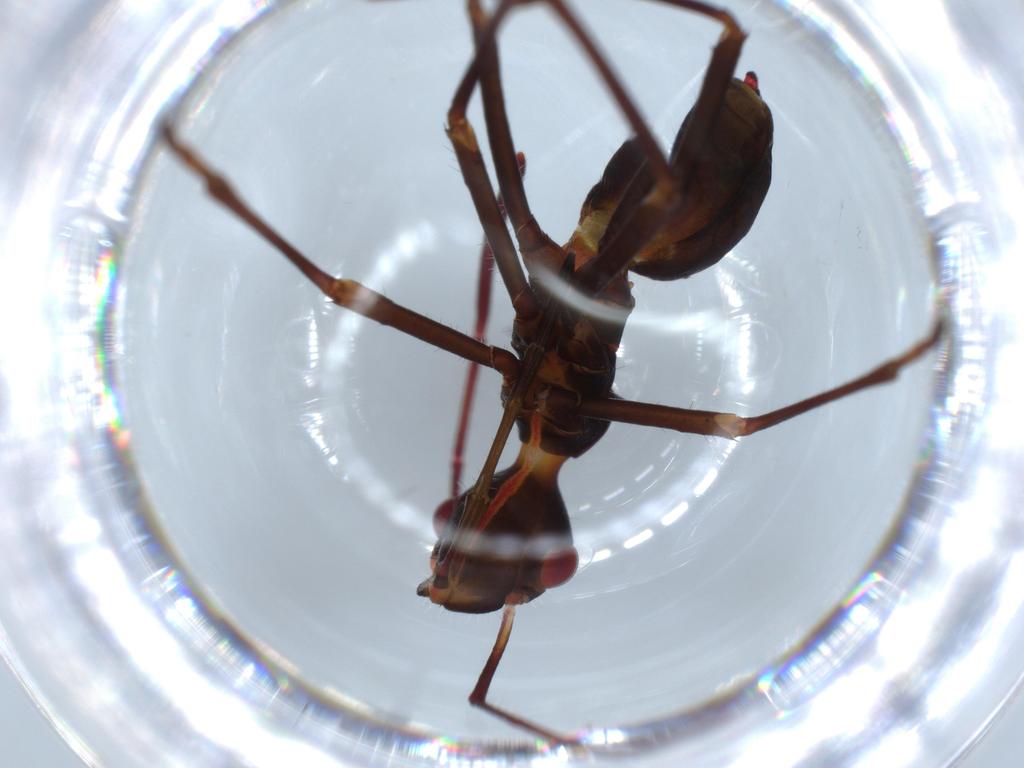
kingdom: Animalia
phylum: Arthropoda
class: Insecta
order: Hemiptera
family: Alydidae
